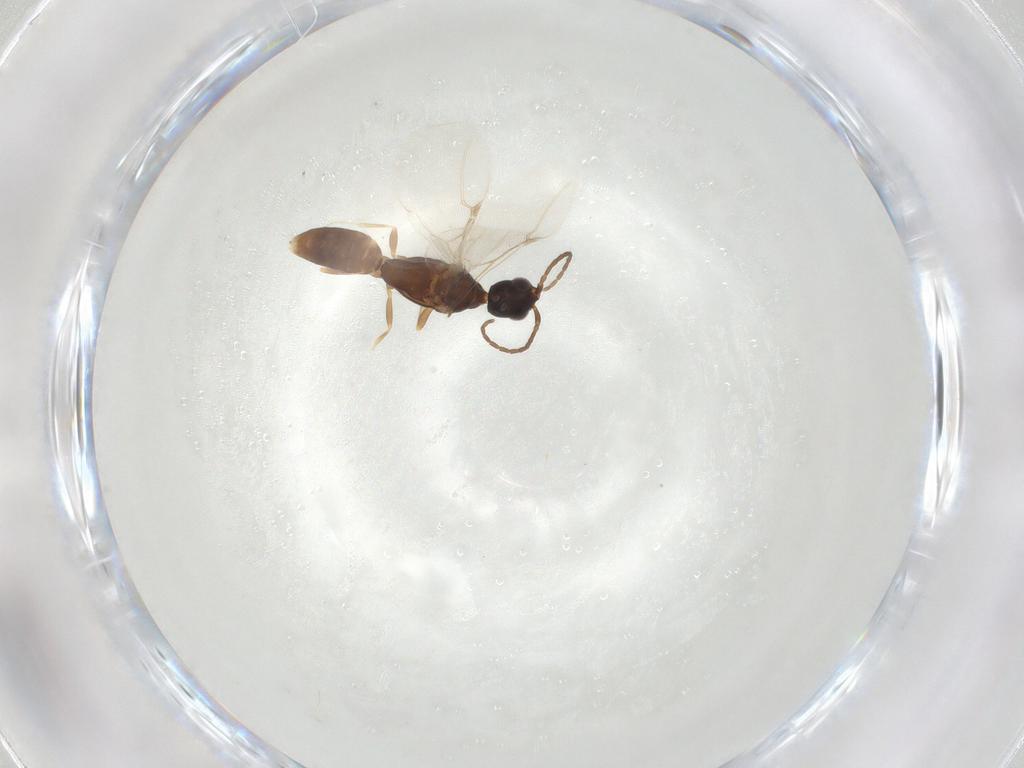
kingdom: Animalia
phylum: Arthropoda
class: Insecta
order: Hymenoptera
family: Bethylidae
